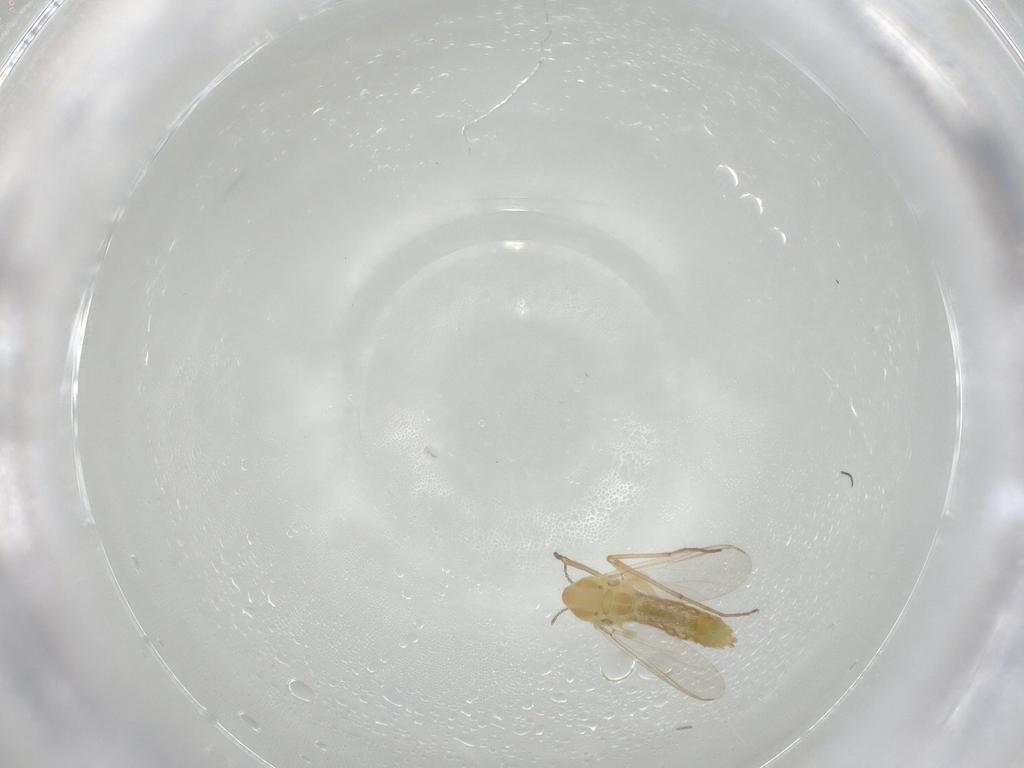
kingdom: Animalia
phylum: Arthropoda
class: Insecta
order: Diptera
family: Chironomidae
